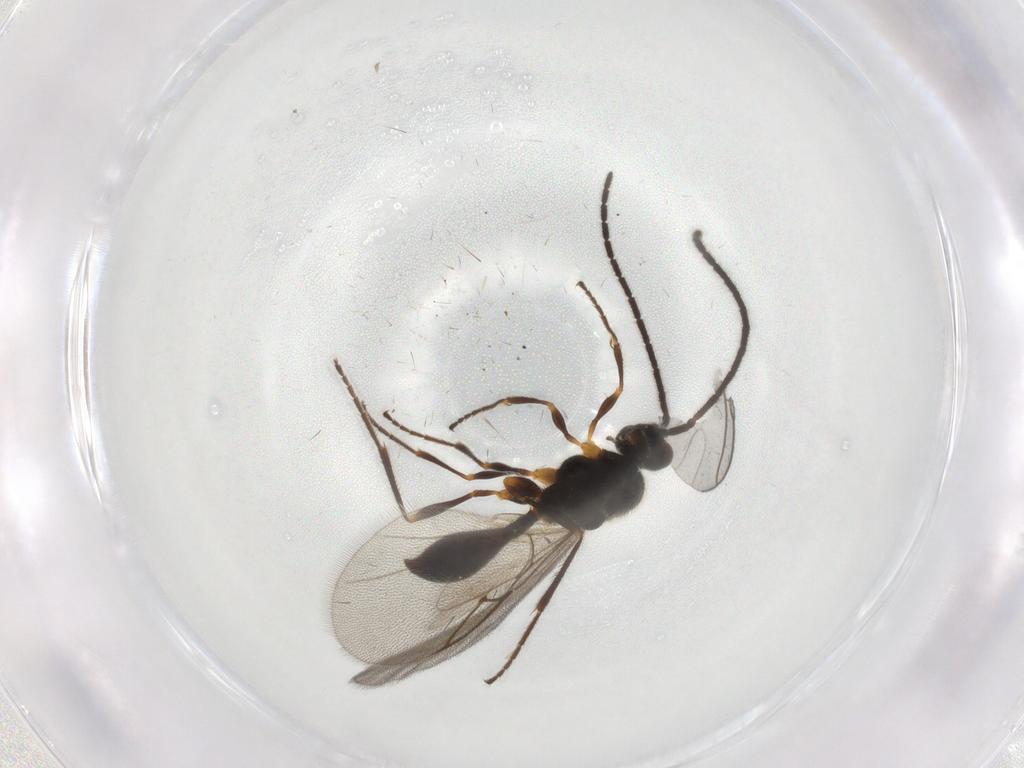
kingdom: Animalia
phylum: Arthropoda
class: Insecta
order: Hymenoptera
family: Diapriidae
